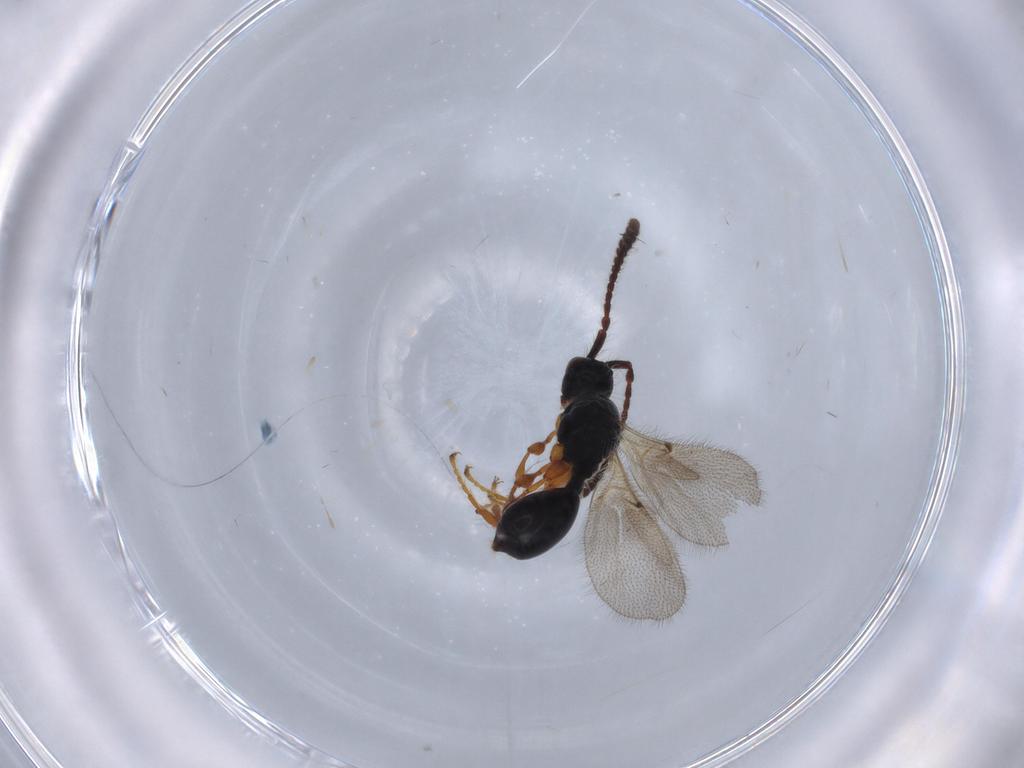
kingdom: Animalia
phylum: Arthropoda
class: Insecta
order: Hymenoptera
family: Diapriidae
